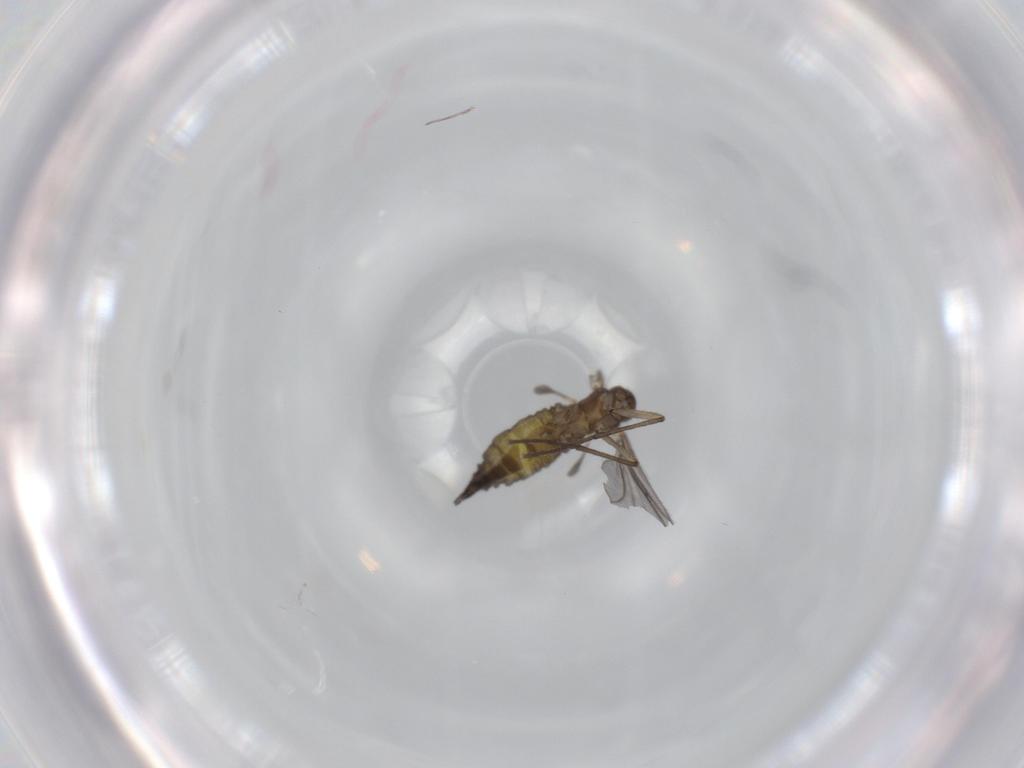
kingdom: Animalia
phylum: Arthropoda
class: Insecta
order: Diptera
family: Sciaridae
